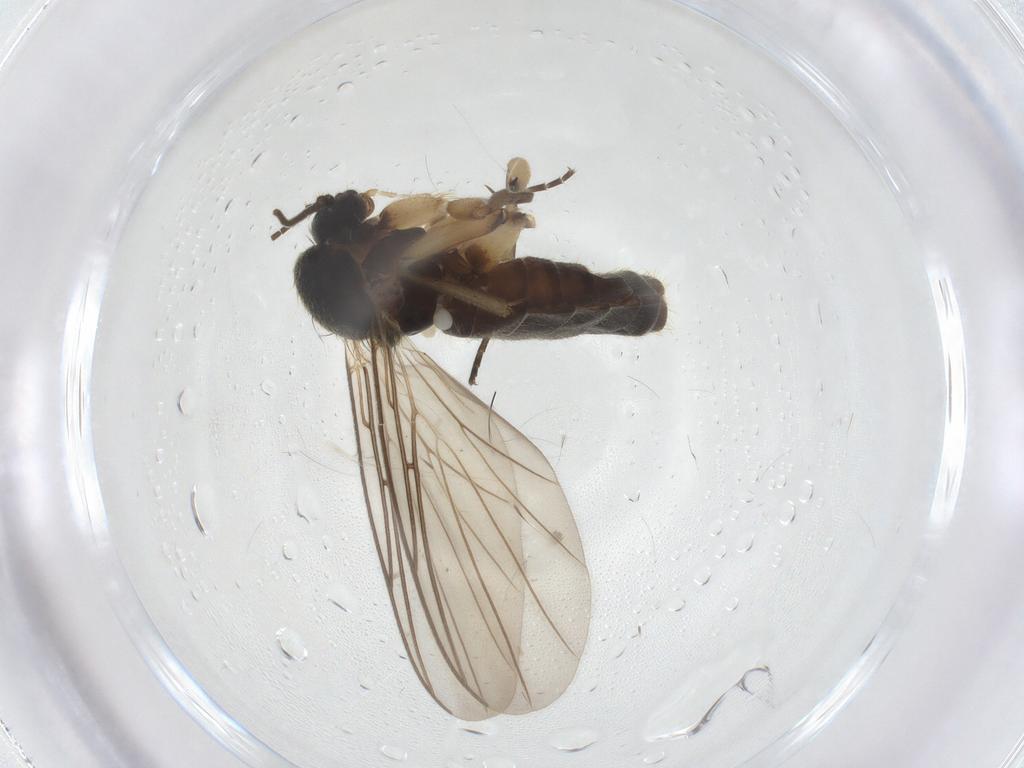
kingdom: Animalia
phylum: Arthropoda
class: Insecta
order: Diptera
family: Mycetophilidae
